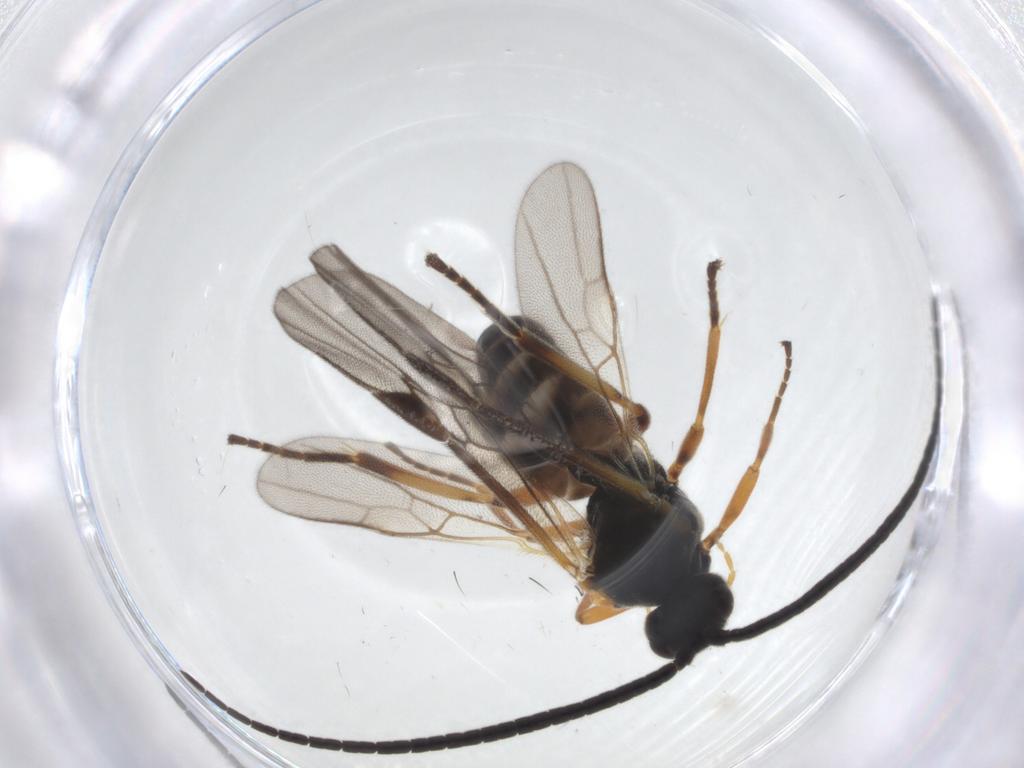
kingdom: Animalia
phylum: Arthropoda
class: Insecta
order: Hymenoptera
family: Braconidae
